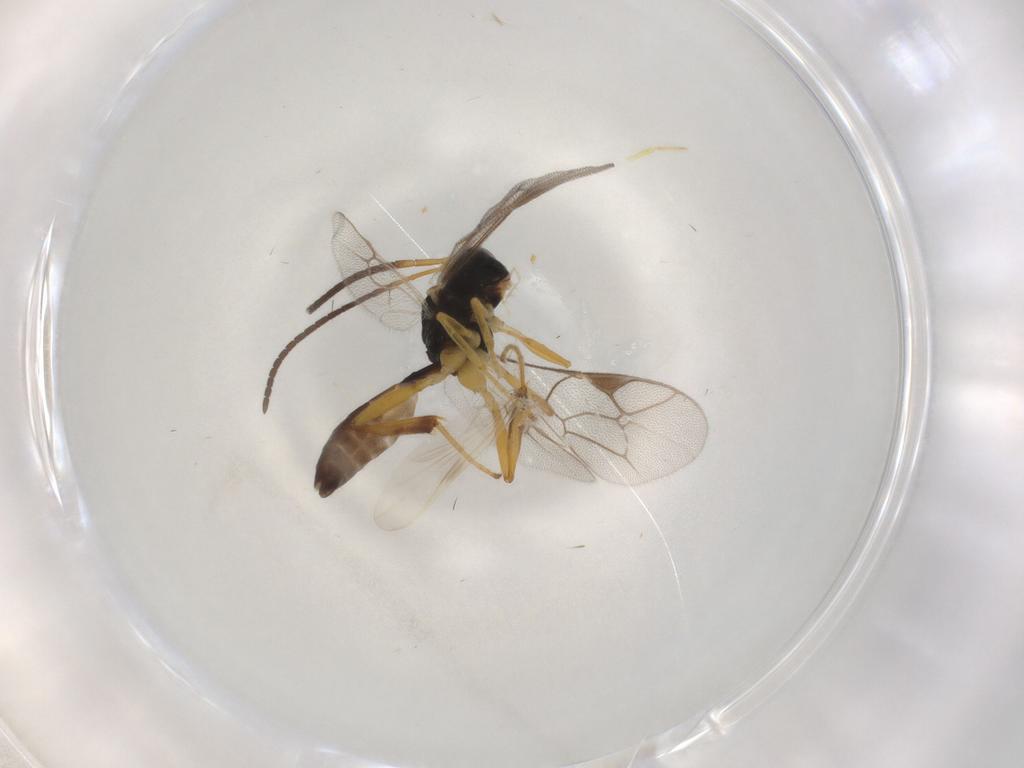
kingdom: Animalia
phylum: Arthropoda
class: Insecta
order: Hymenoptera
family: Ichneumonidae
